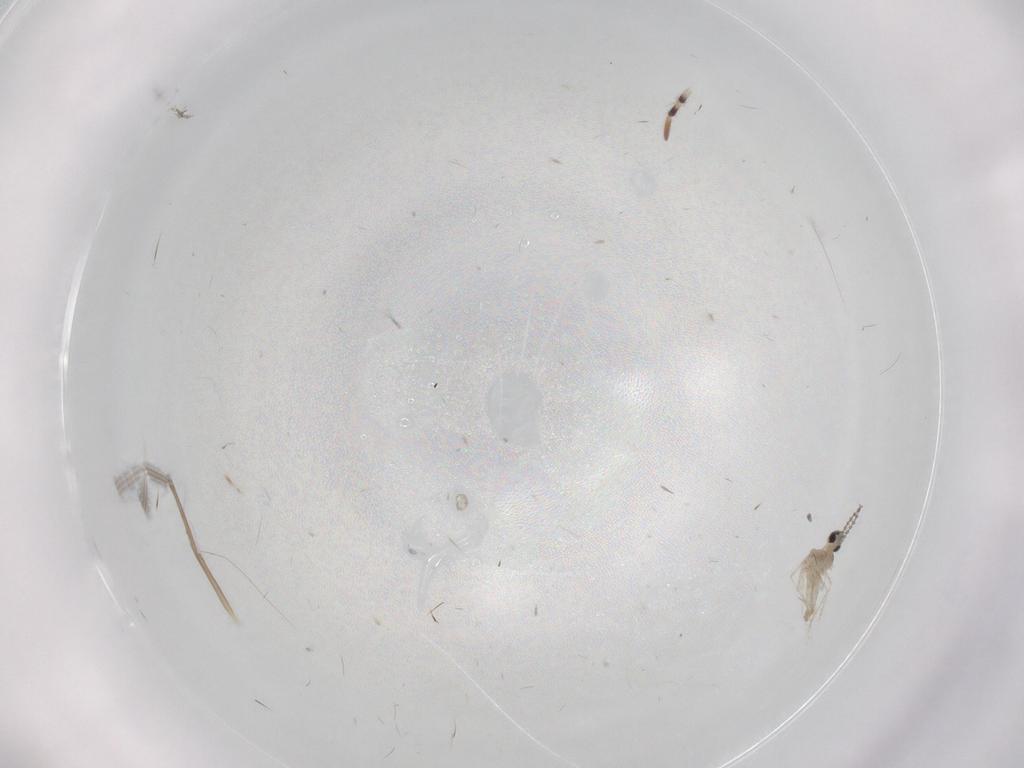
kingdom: Animalia
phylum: Arthropoda
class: Insecta
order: Diptera
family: Cecidomyiidae
